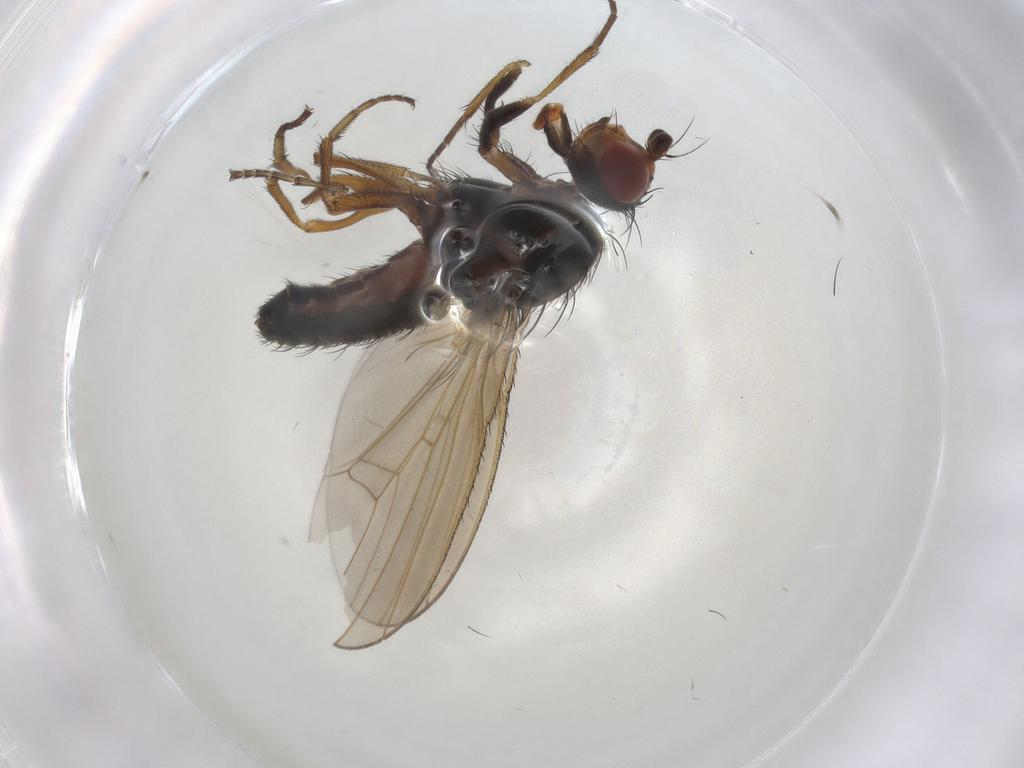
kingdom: Animalia
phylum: Arthropoda
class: Insecta
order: Diptera
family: Heleomyzidae
